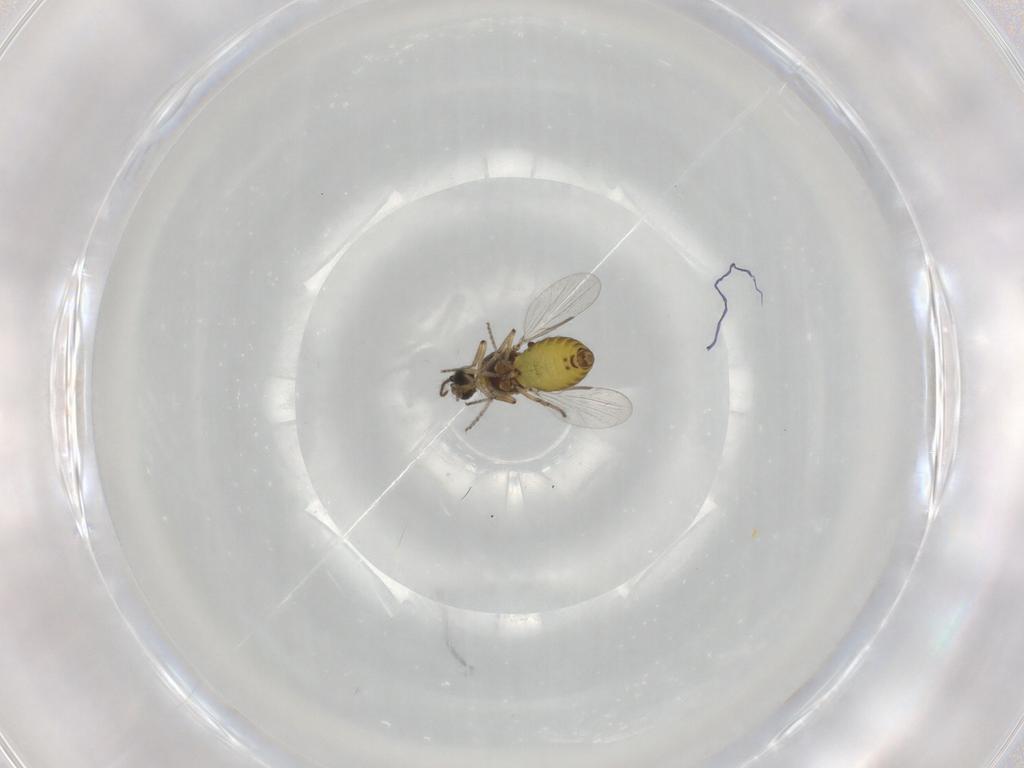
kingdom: Animalia
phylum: Arthropoda
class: Insecta
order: Diptera
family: Ceratopogonidae
